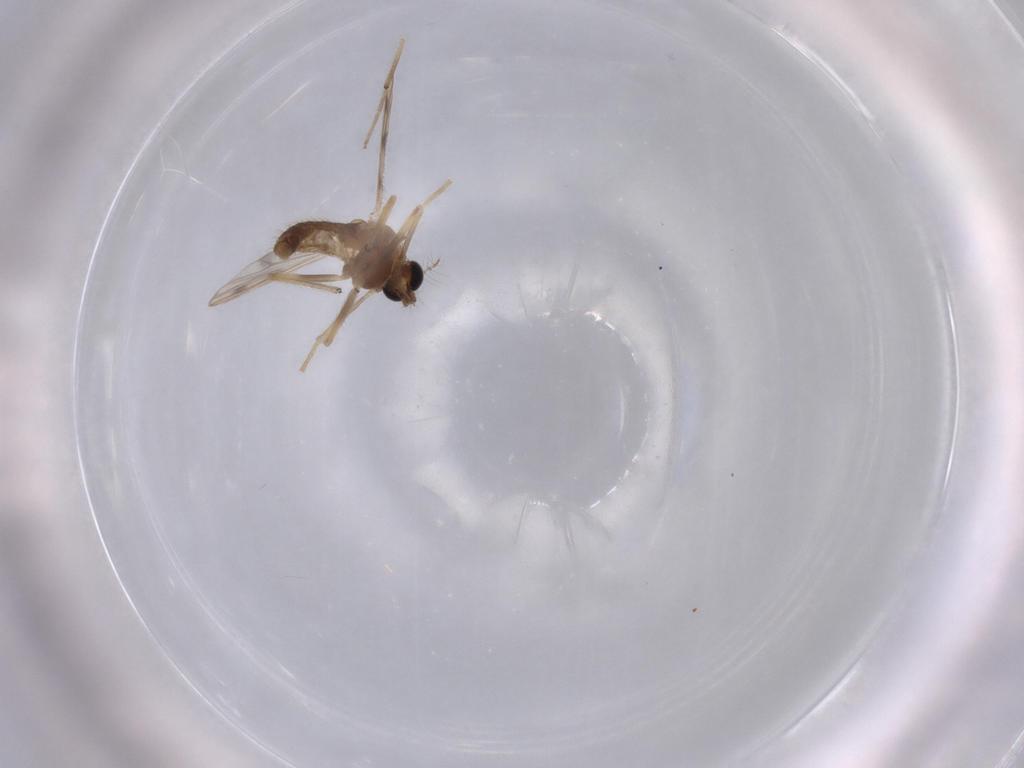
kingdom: Animalia
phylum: Arthropoda
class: Insecta
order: Diptera
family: Chironomidae
